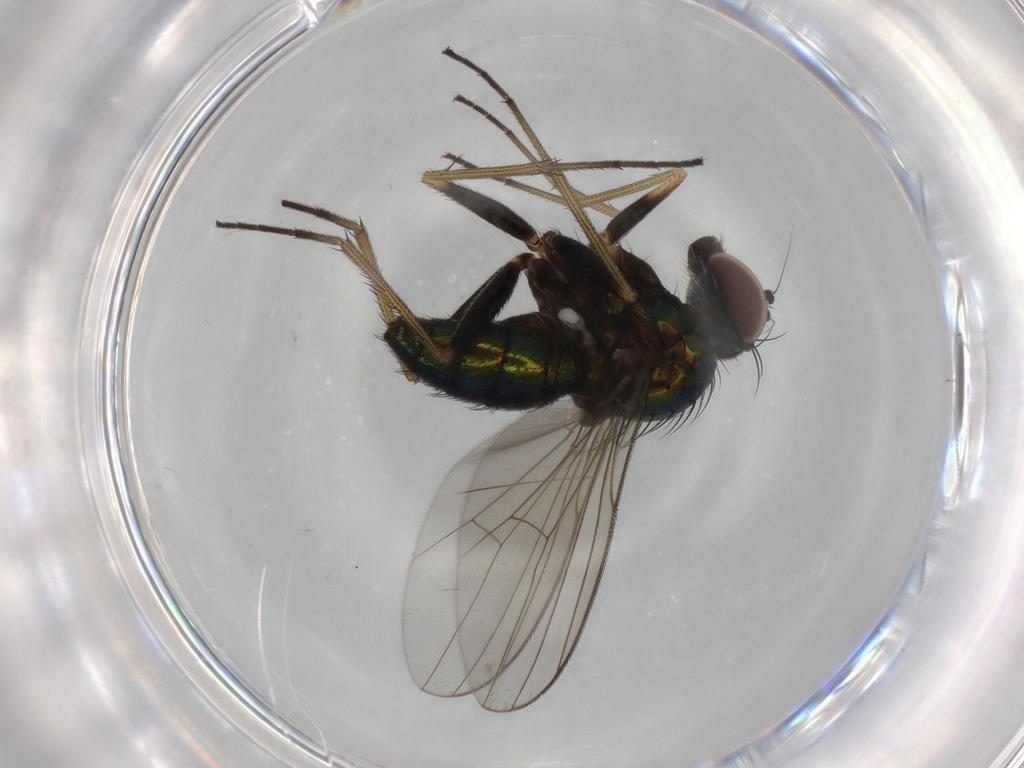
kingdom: Animalia
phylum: Arthropoda
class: Insecta
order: Diptera
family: Dolichopodidae
